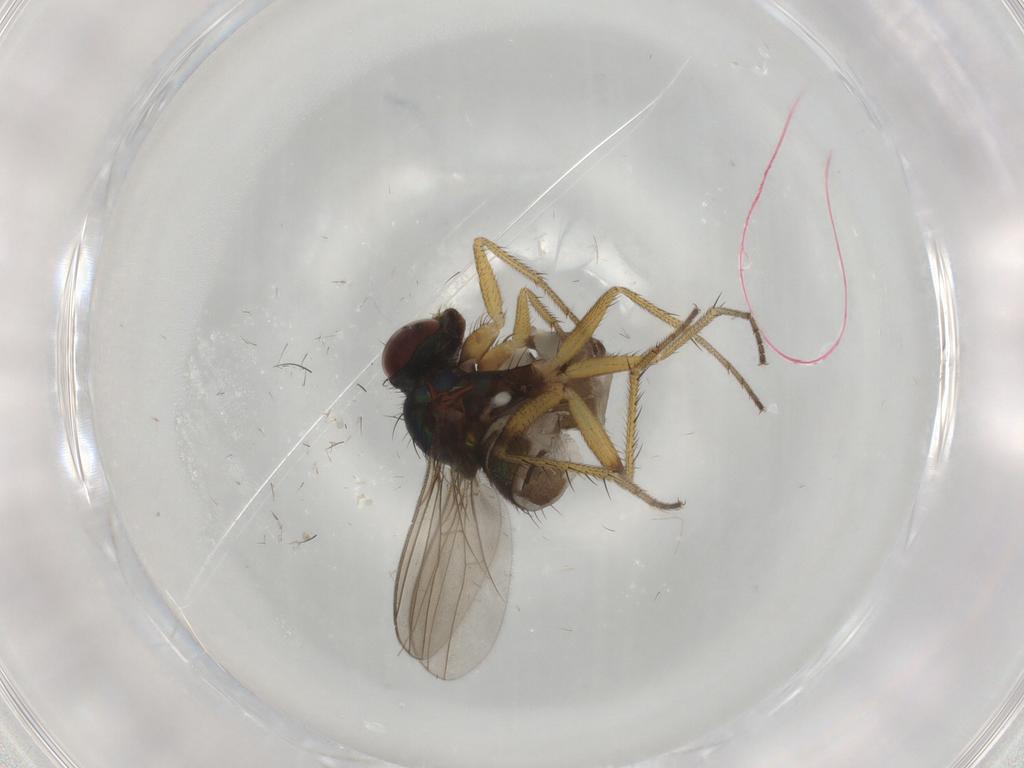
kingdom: Animalia
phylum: Arthropoda
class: Insecta
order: Diptera
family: Dolichopodidae
